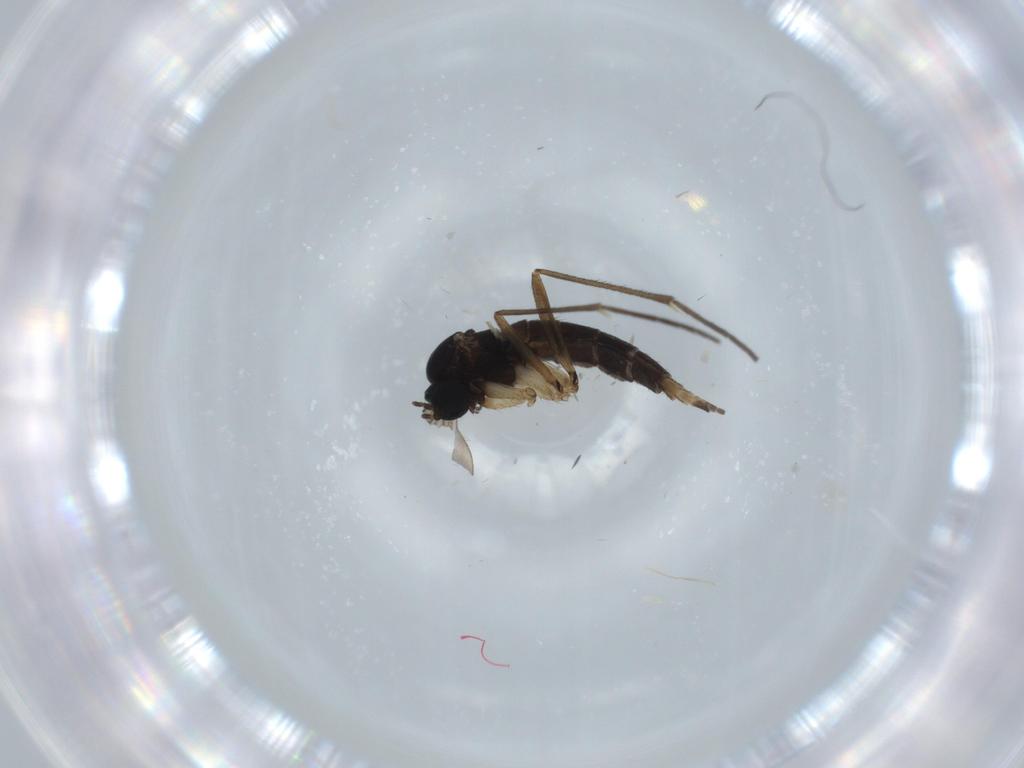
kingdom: Animalia
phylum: Arthropoda
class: Insecta
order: Diptera
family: Sciaridae
